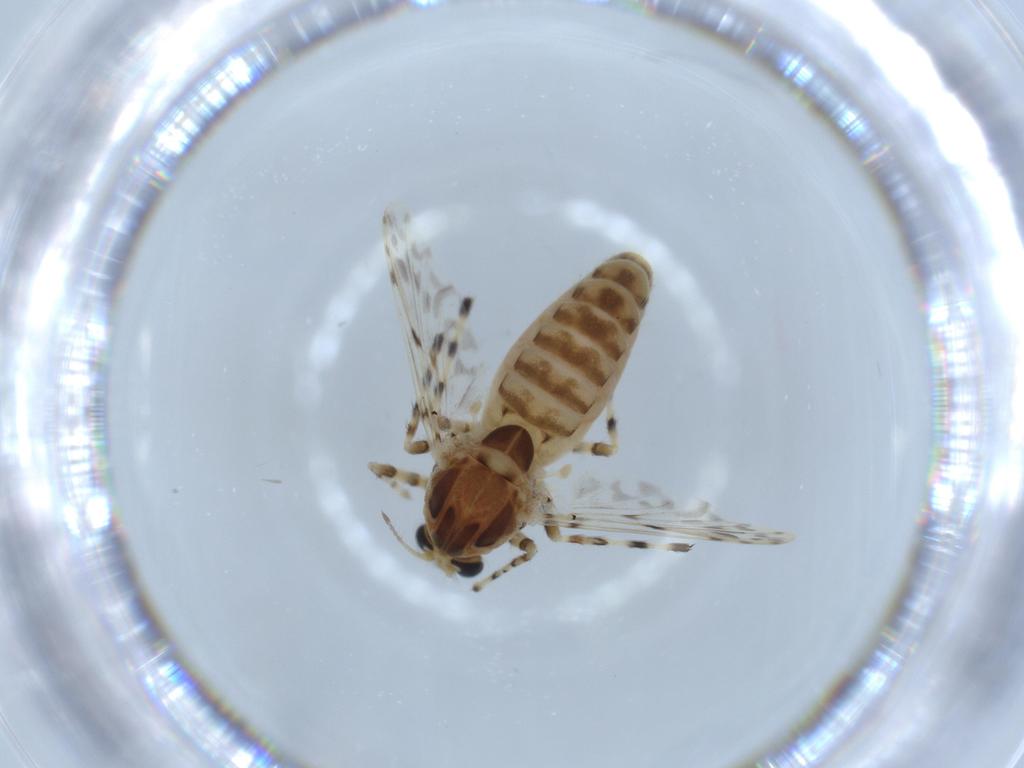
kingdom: Animalia
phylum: Arthropoda
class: Insecta
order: Diptera
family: Chironomidae
